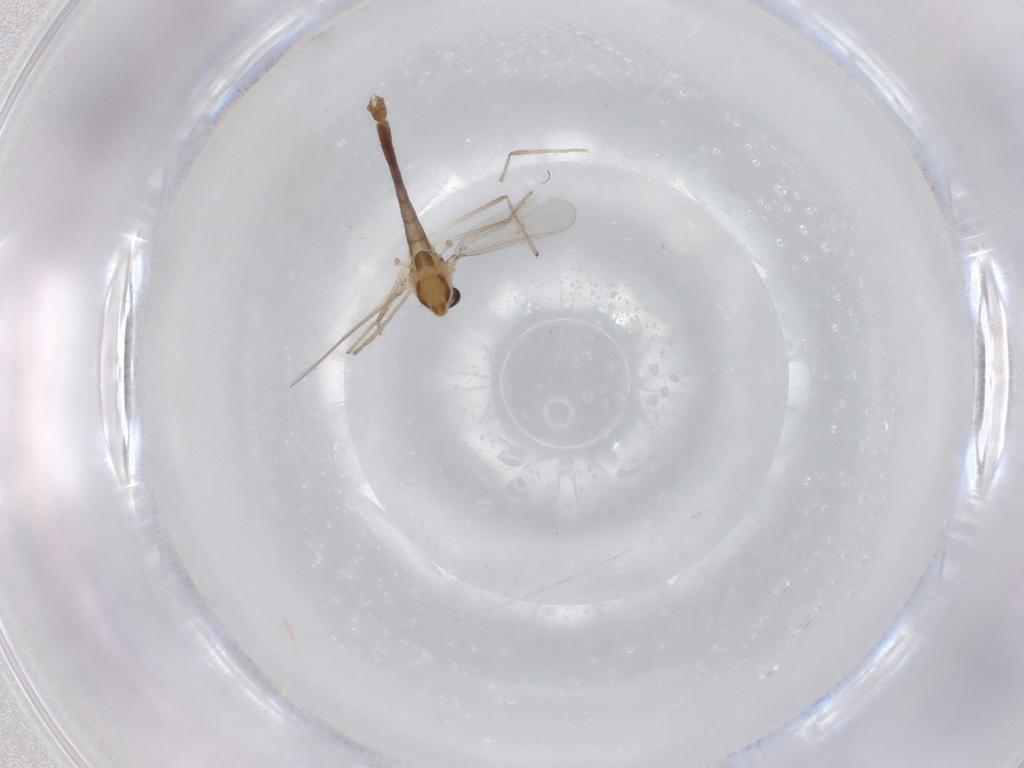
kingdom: Animalia
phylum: Arthropoda
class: Insecta
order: Diptera
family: Chironomidae
